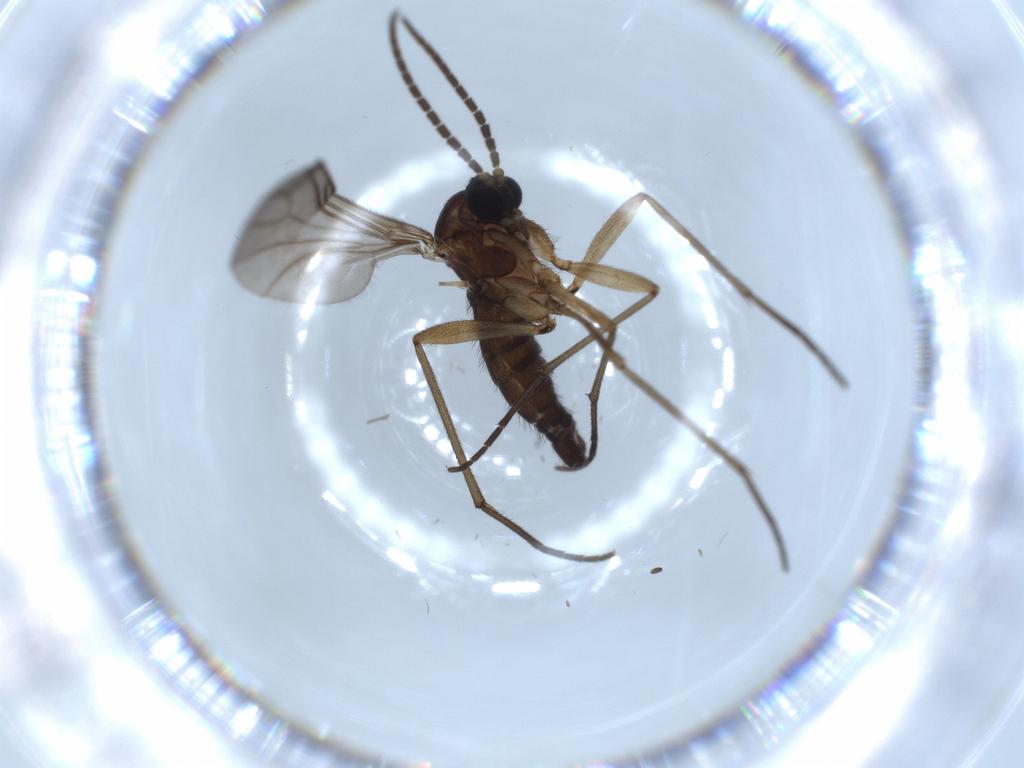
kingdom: Animalia
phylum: Arthropoda
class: Insecta
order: Diptera
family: Sciaridae
